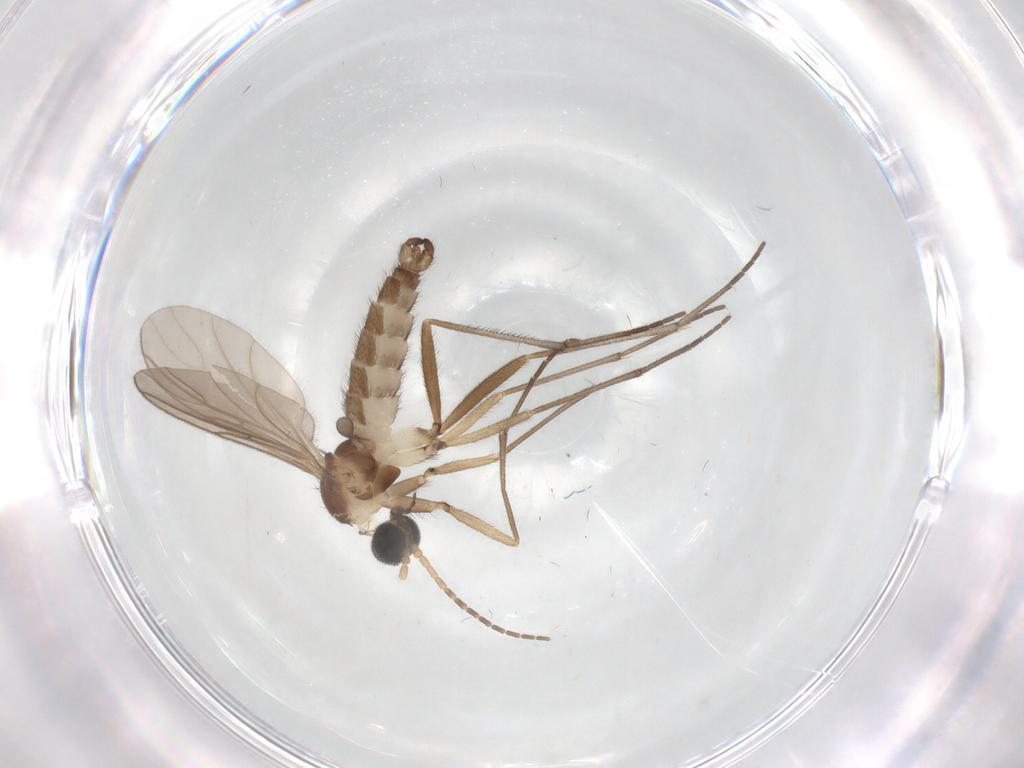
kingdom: Animalia
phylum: Arthropoda
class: Insecta
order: Diptera
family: Sciaridae
